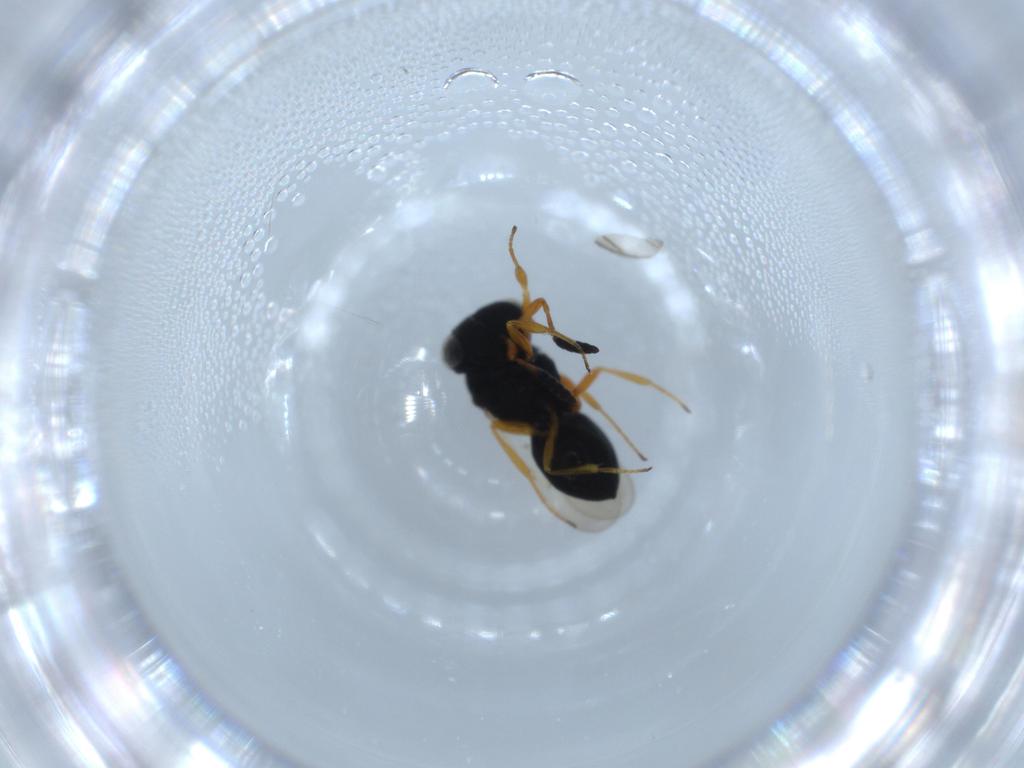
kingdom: Animalia
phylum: Arthropoda
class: Insecta
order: Hymenoptera
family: Scelionidae
